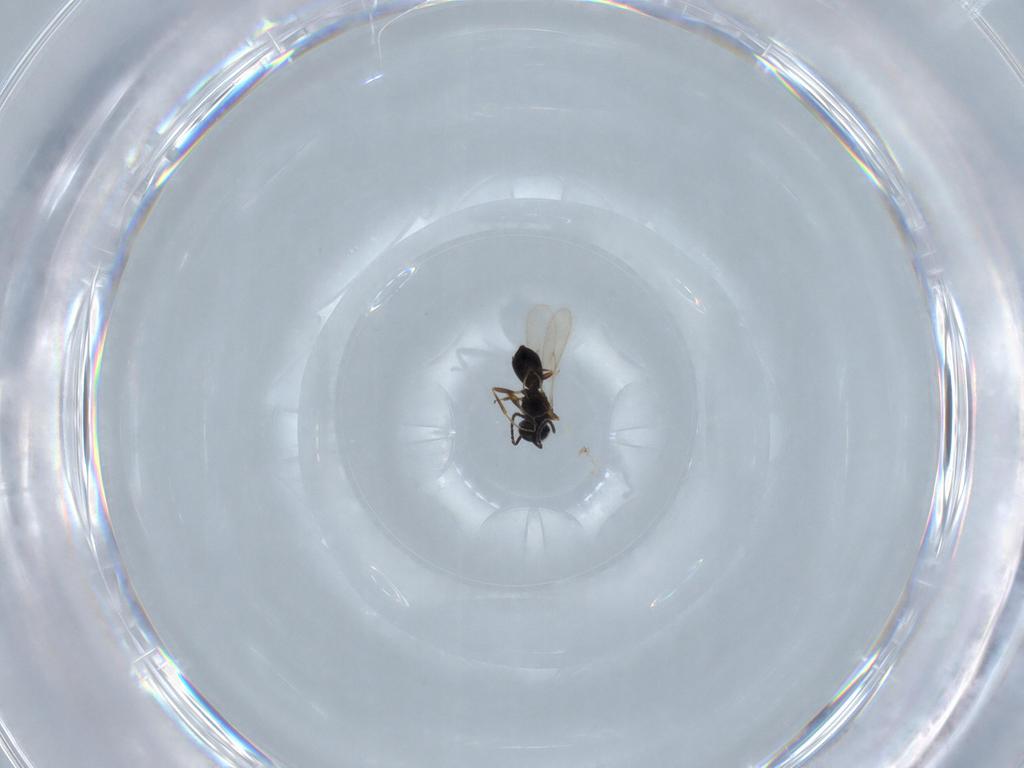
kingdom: Animalia
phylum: Arthropoda
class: Insecta
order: Hymenoptera
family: Scelionidae
